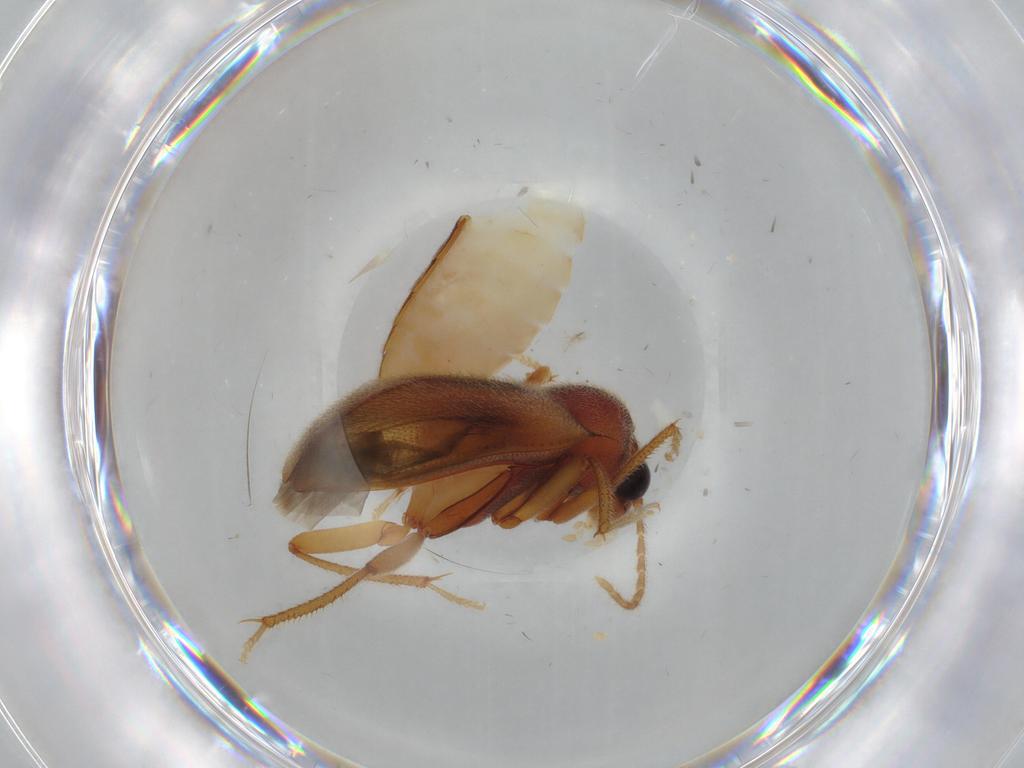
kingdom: Animalia
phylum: Arthropoda
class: Insecta
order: Coleoptera
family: Ptilodactylidae
